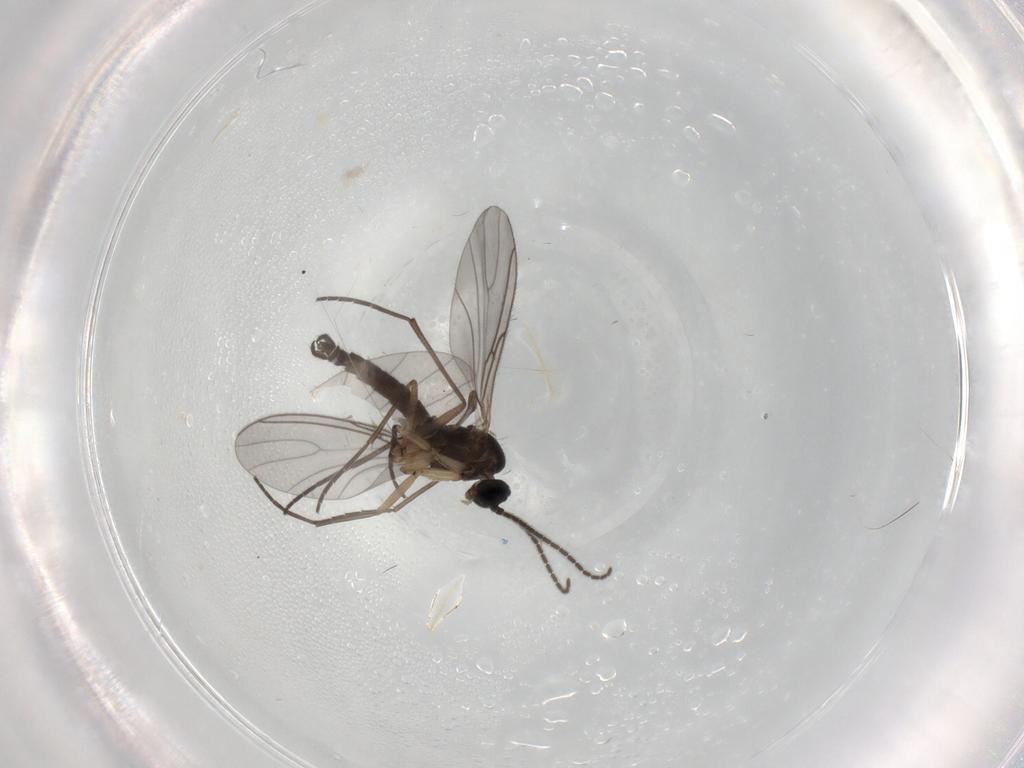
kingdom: Animalia
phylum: Arthropoda
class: Insecta
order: Diptera
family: Sciaridae
